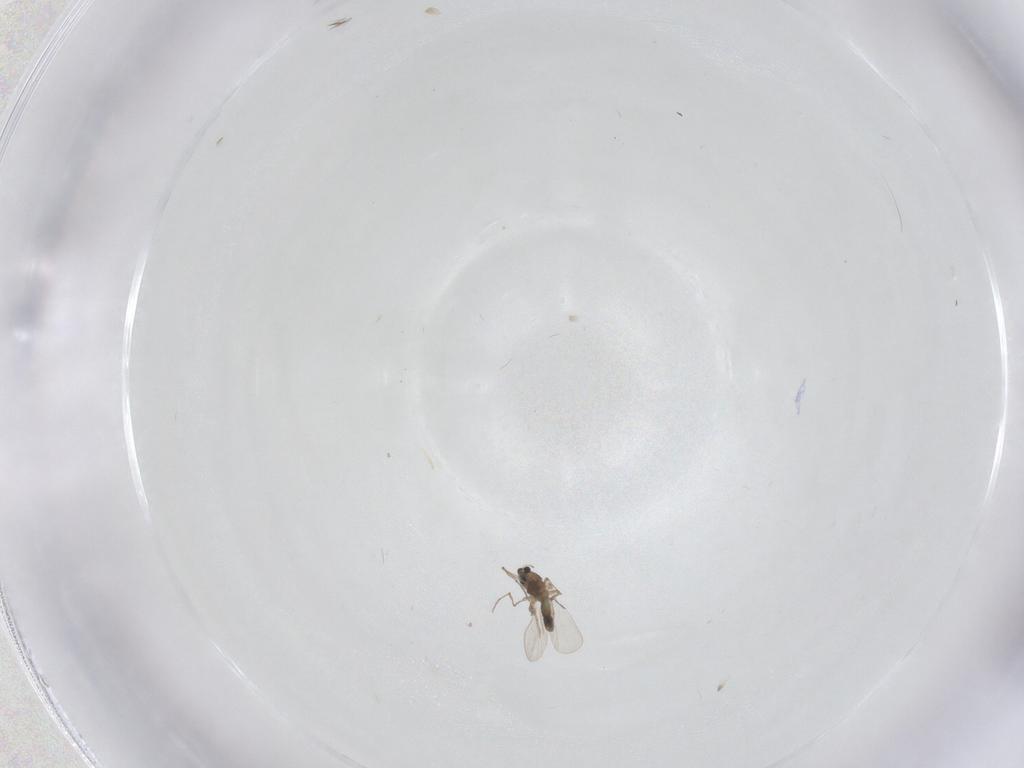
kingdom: Animalia
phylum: Arthropoda
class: Insecta
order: Diptera
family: Chironomidae
